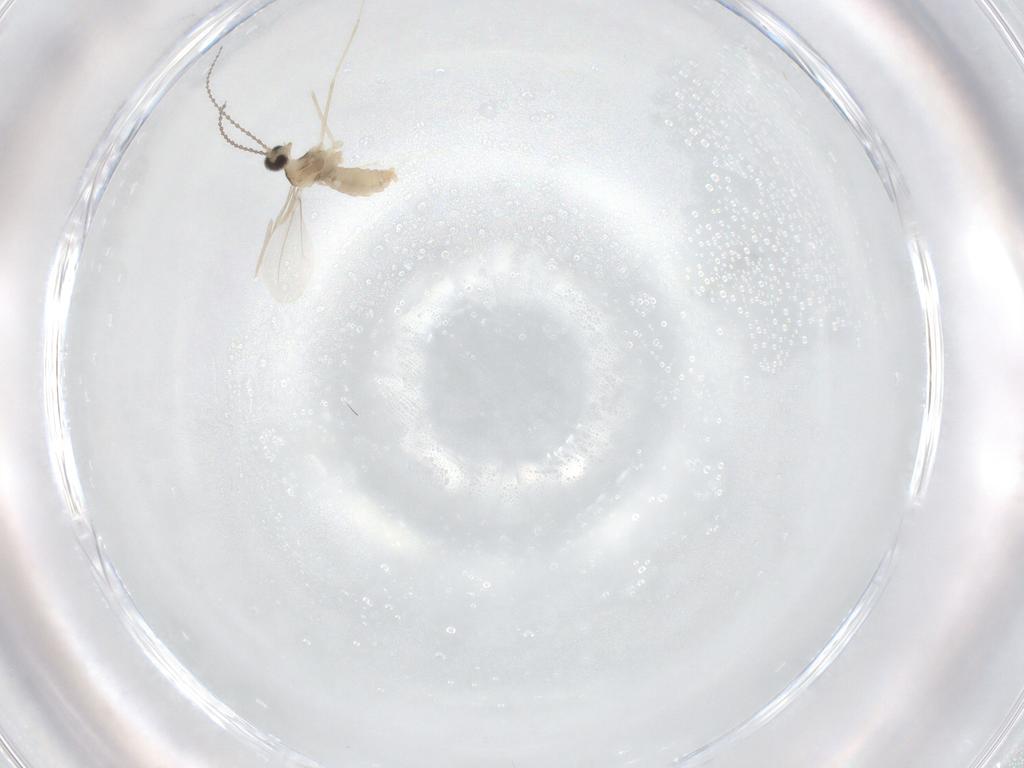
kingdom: Animalia
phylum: Arthropoda
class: Insecta
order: Diptera
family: Cecidomyiidae
